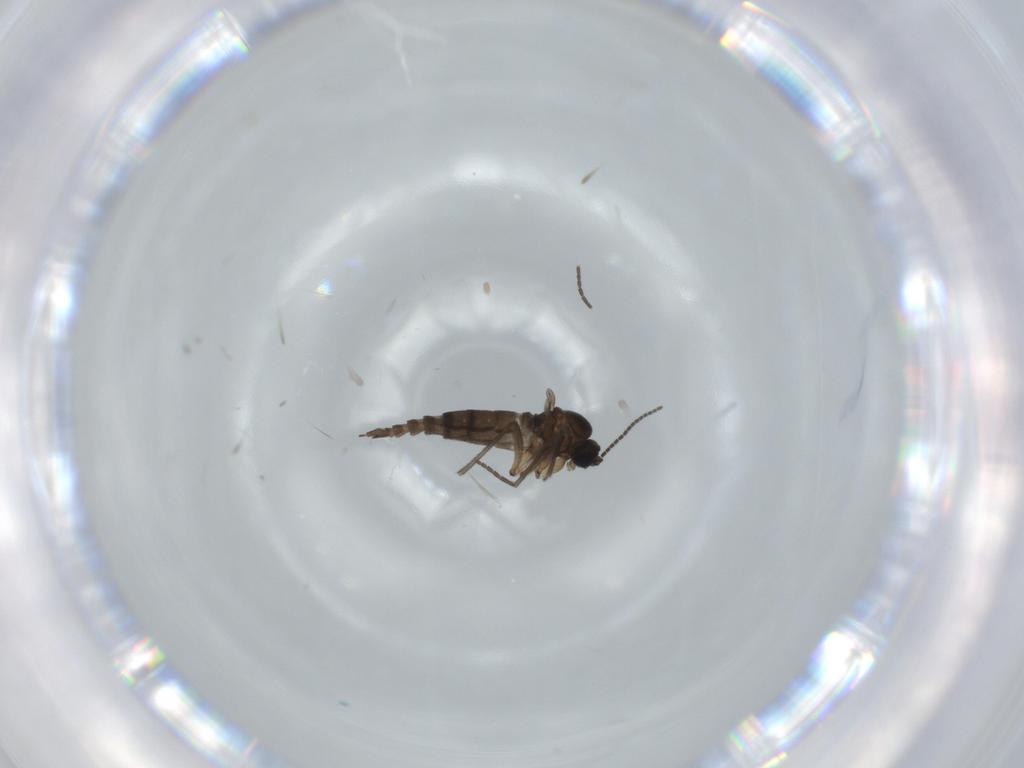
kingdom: Animalia
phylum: Arthropoda
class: Insecta
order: Diptera
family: Sciaridae
